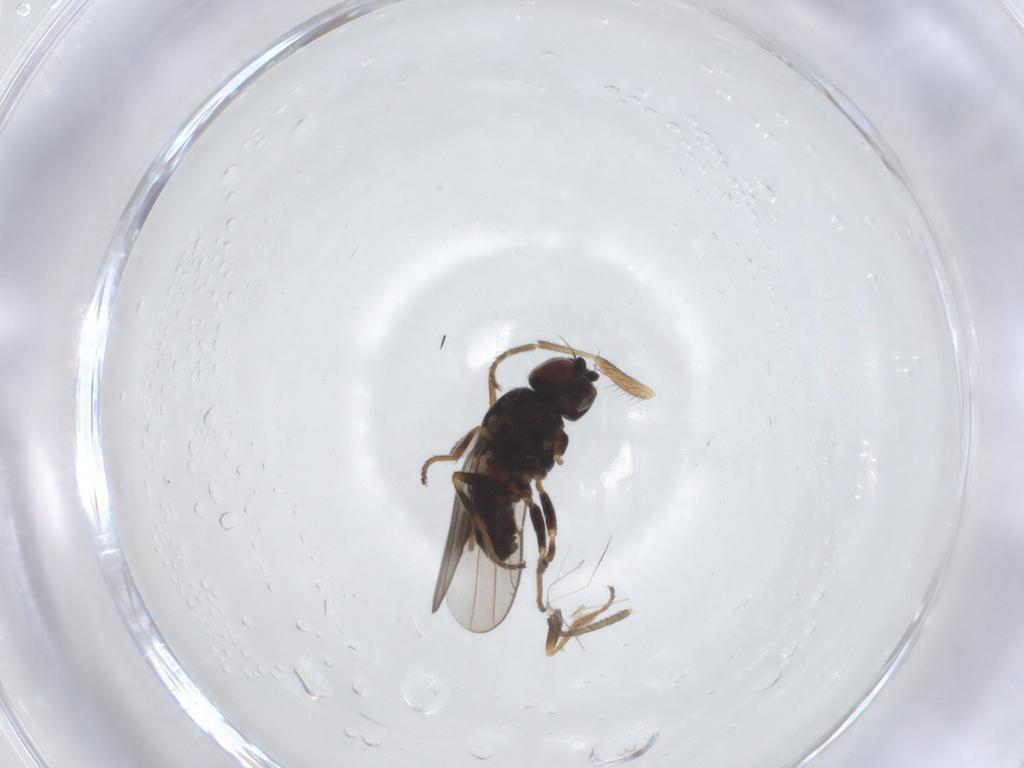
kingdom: Animalia
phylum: Arthropoda
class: Insecta
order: Diptera
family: Chloropidae
